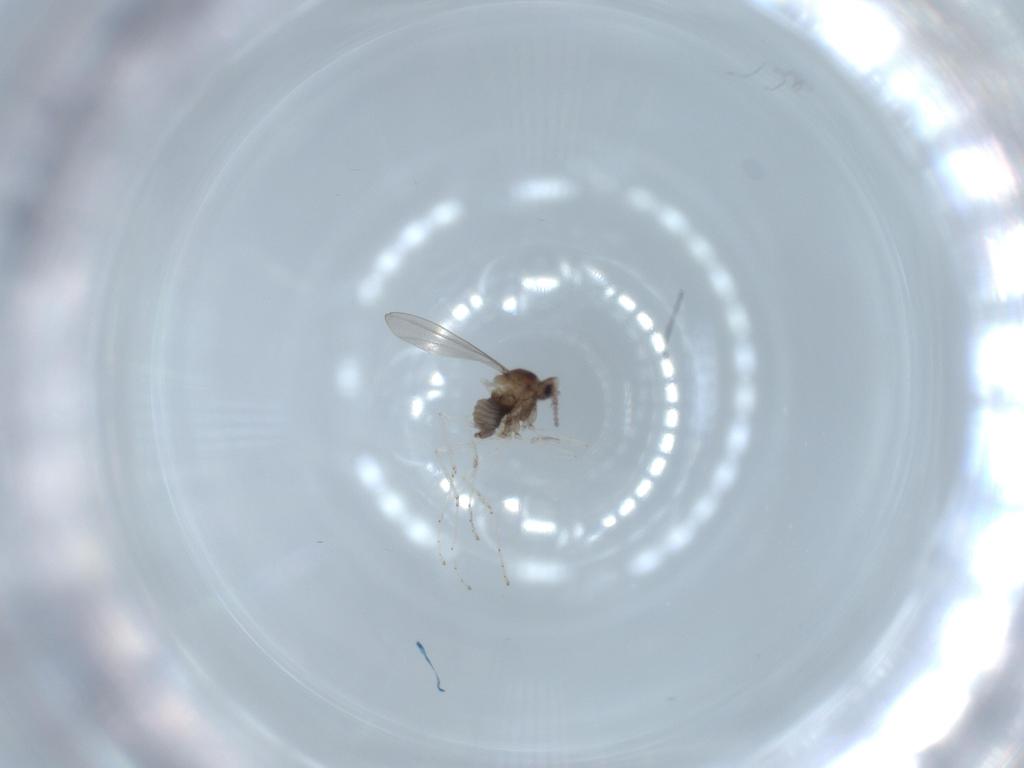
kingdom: Animalia
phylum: Arthropoda
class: Insecta
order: Diptera
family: Cecidomyiidae
